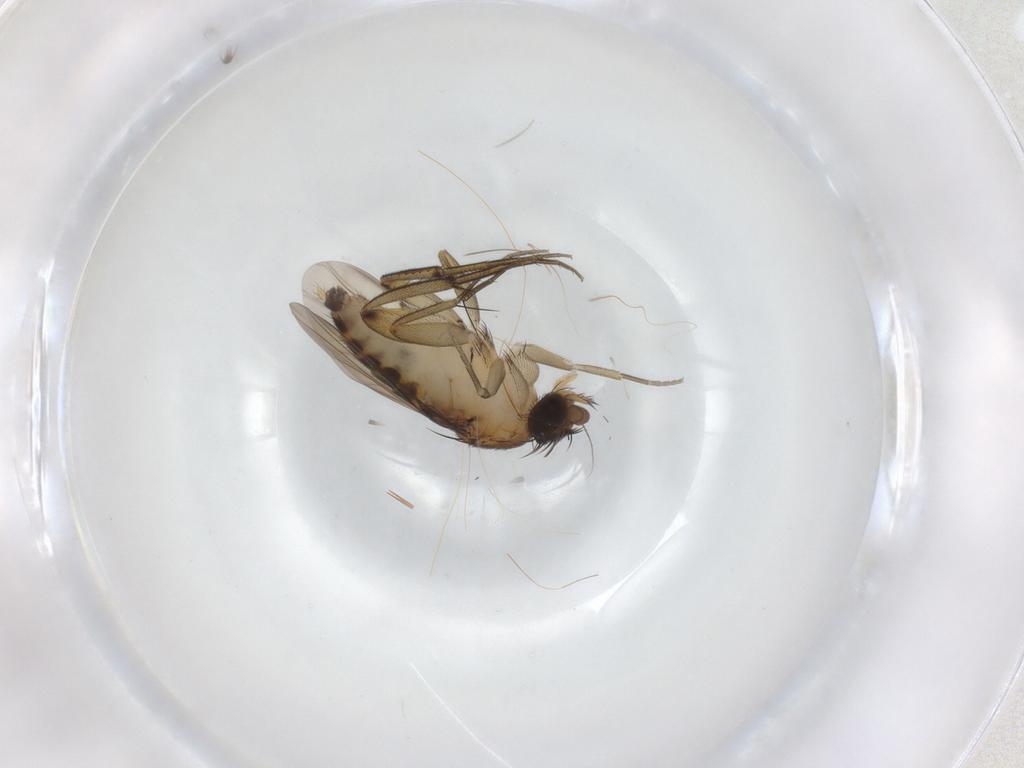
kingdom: Animalia
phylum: Arthropoda
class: Insecta
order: Diptera
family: Phoridae
